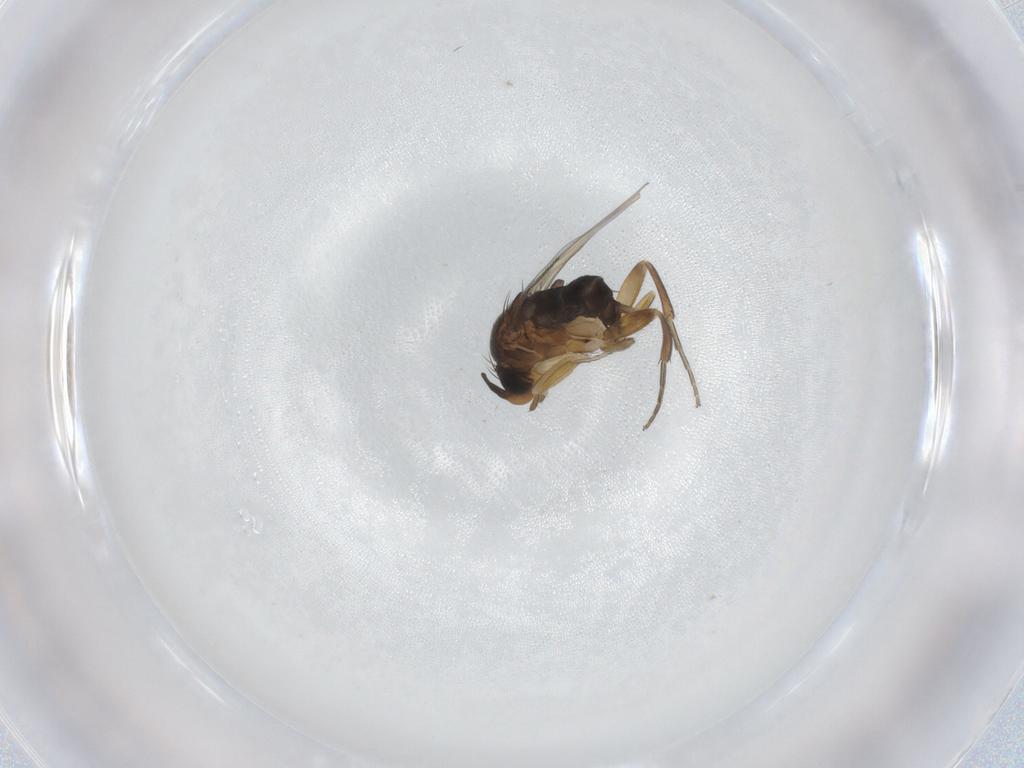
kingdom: Animalia
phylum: Arthropoda
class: Insecta
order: Diptera
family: Phoridae
